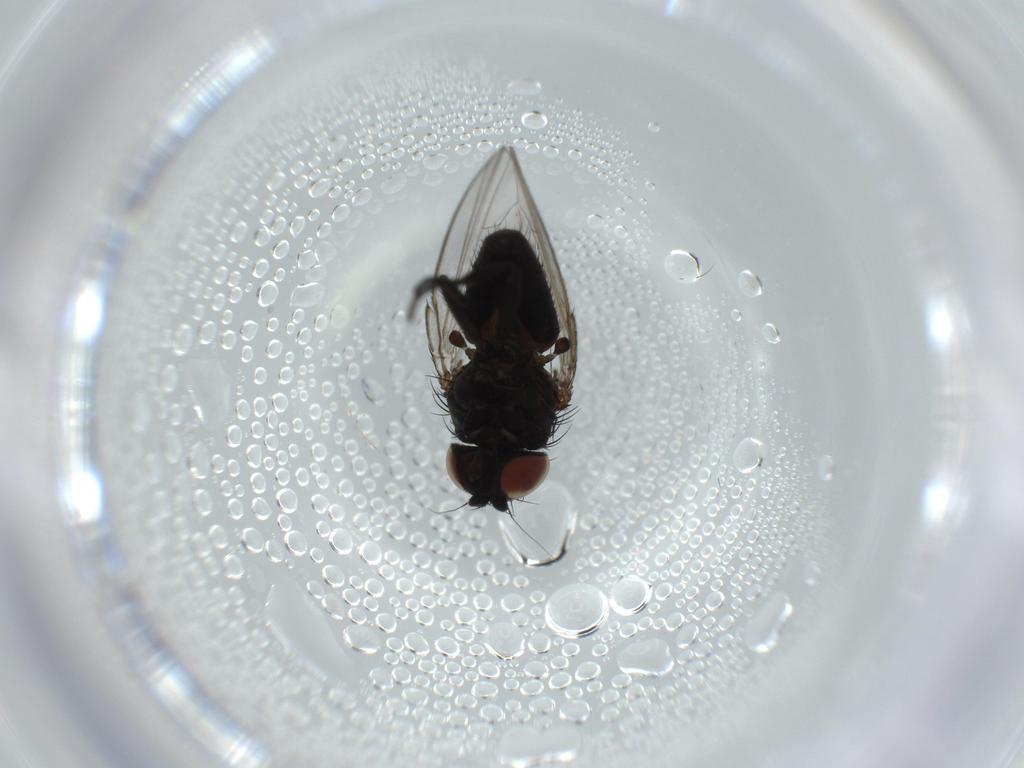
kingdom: Animalia
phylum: Arthropoda
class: Insecta
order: Diptera
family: Milichiidae
